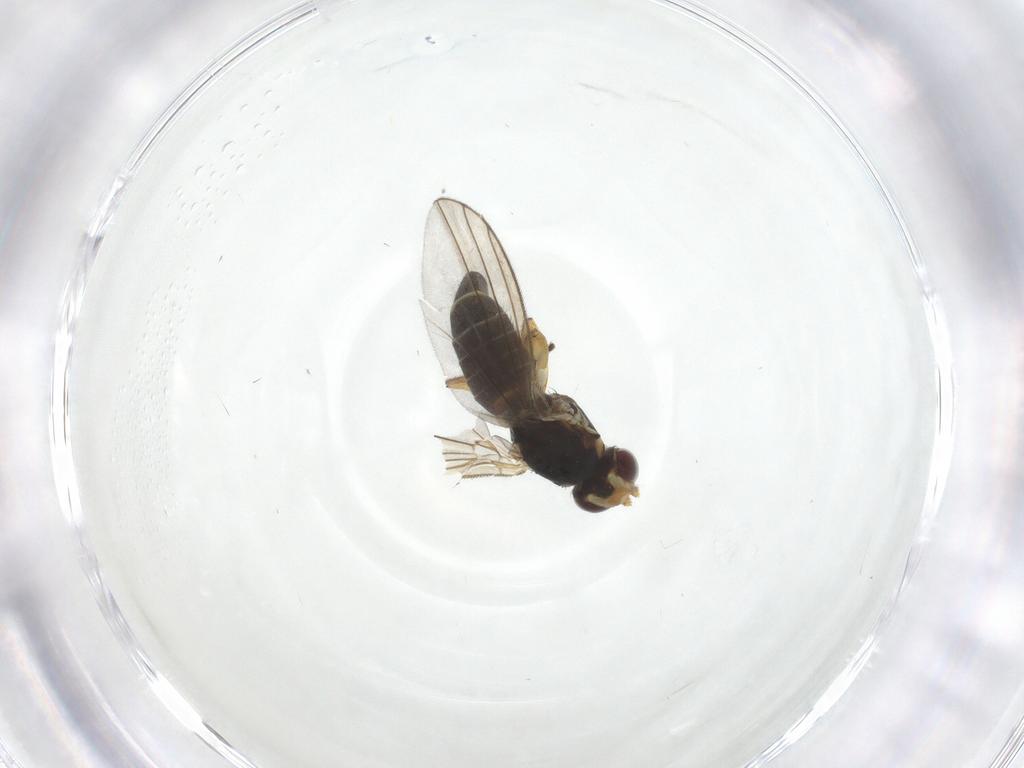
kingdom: Animalia
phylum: Arthropoda
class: Insecta
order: Diptera
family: Agromyzidae
